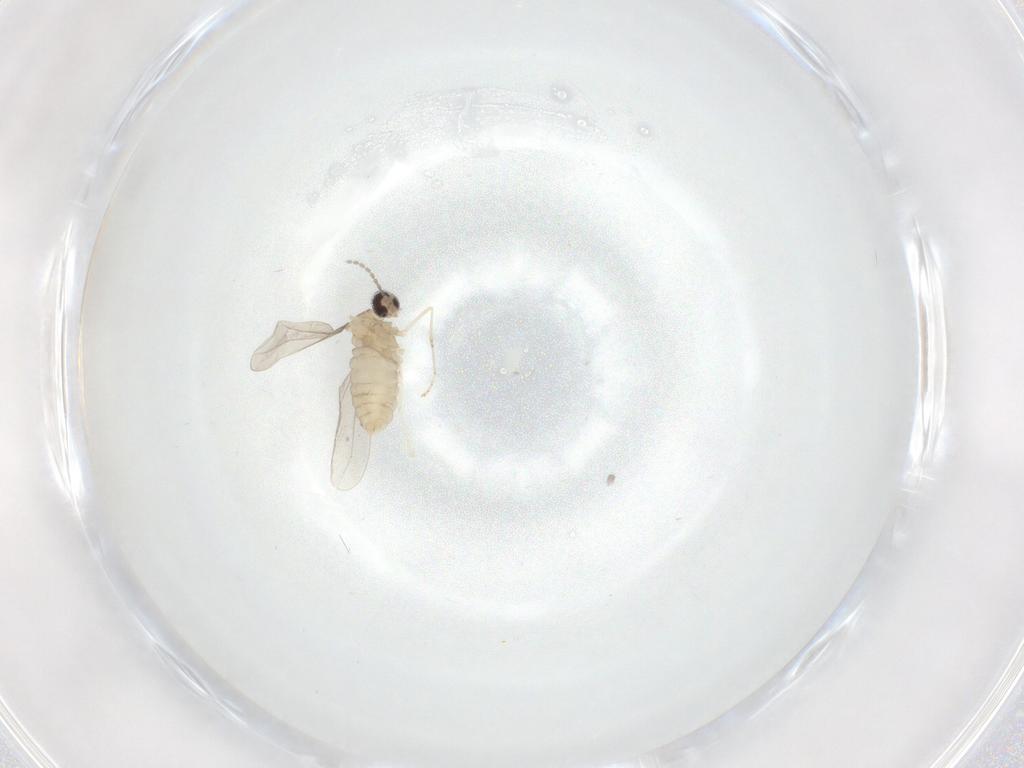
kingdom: Animalia
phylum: Arthropoda
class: Insecta
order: Diptera
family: Cecidomyiidae
